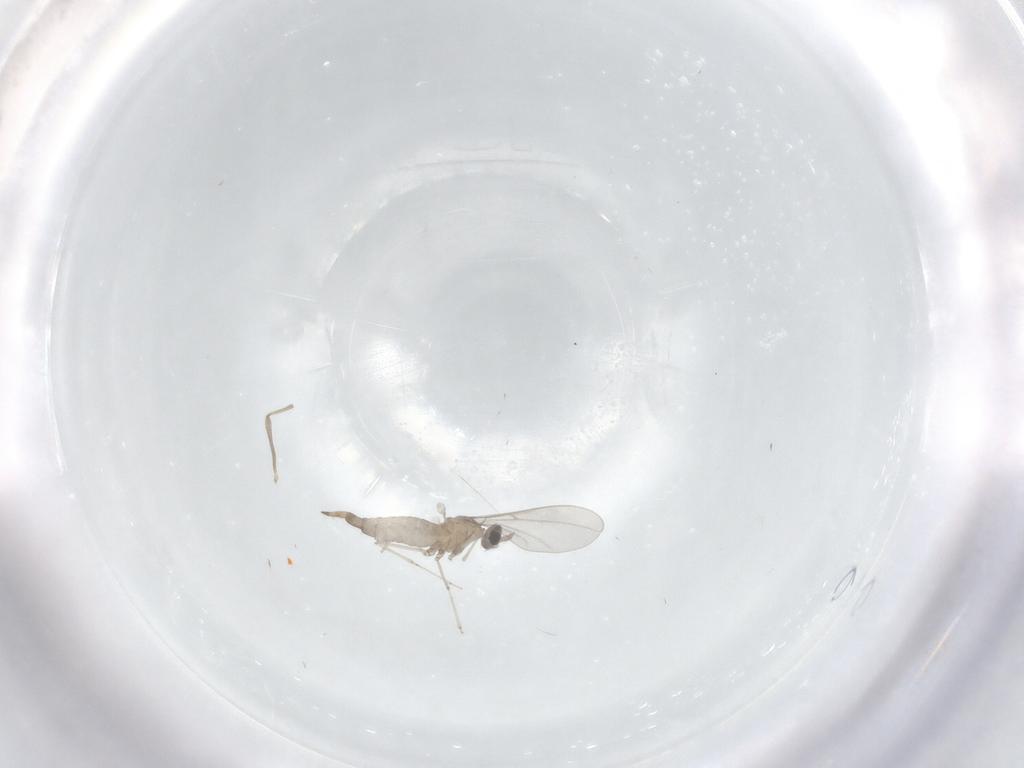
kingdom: Animalia
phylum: Arthropoda
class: Insecta
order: Diptera
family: Chironomidae
